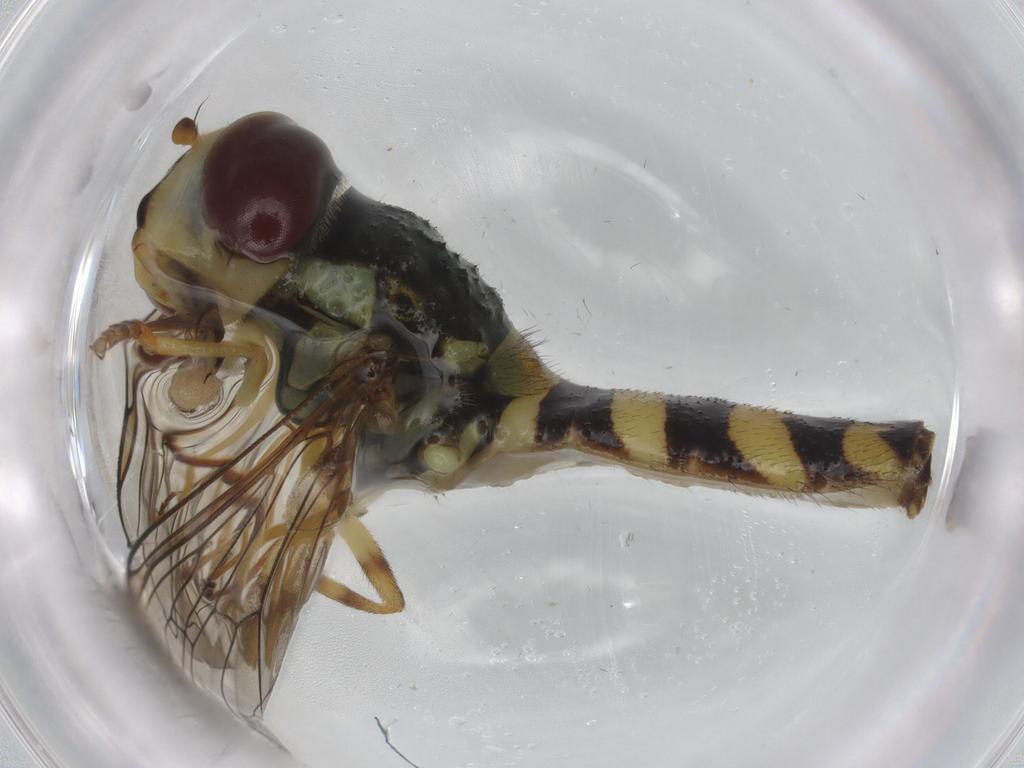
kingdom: Animalia
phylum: Arthropoda
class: Insecta
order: Diptera
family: Syrphidae
